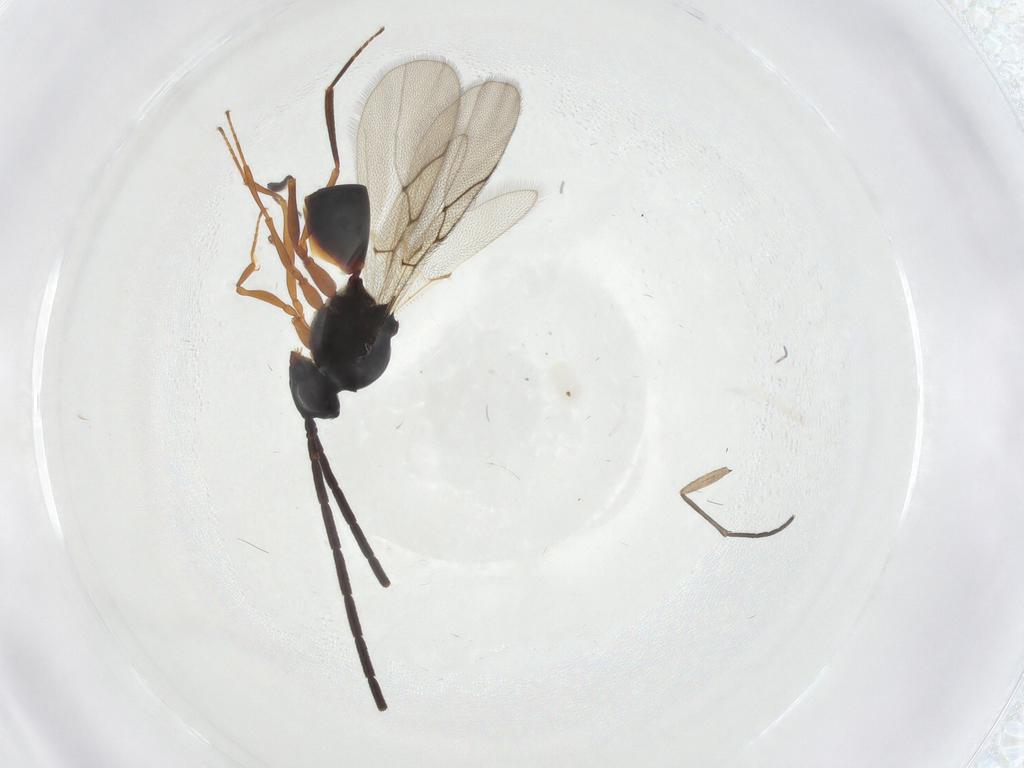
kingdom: Animalia
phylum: Arthropoda
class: Insecta
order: Hymenoptera
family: Figitidae
